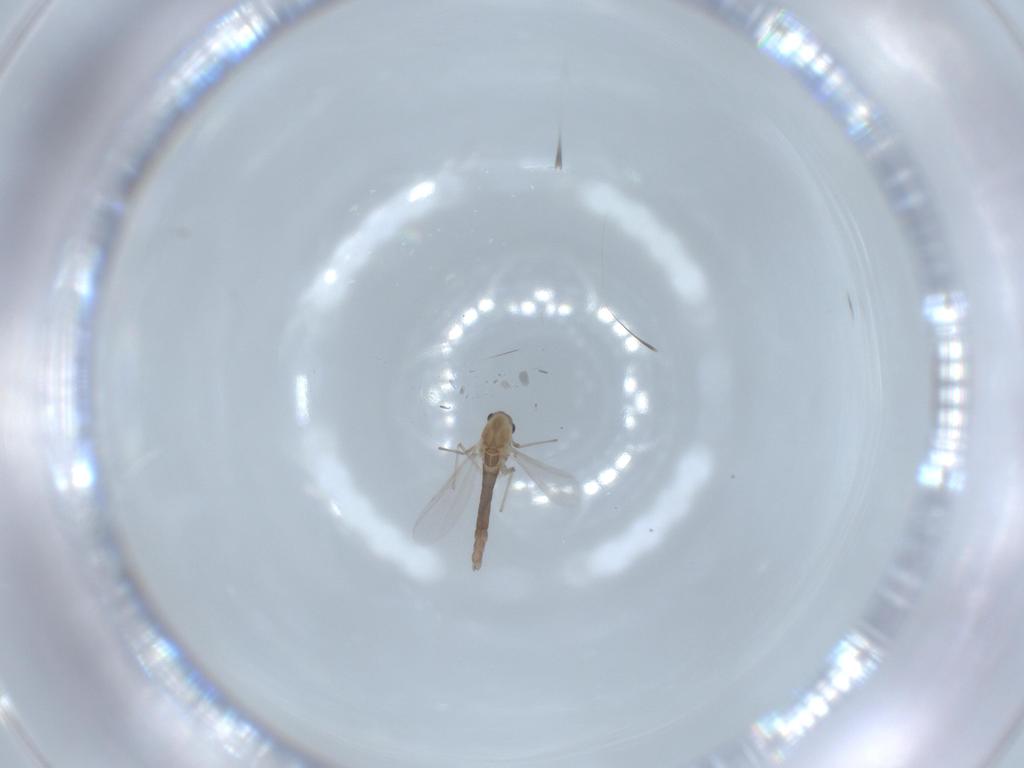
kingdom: Animalia
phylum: Arthropoda
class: Insecta
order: Diptera
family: Chironomidae
